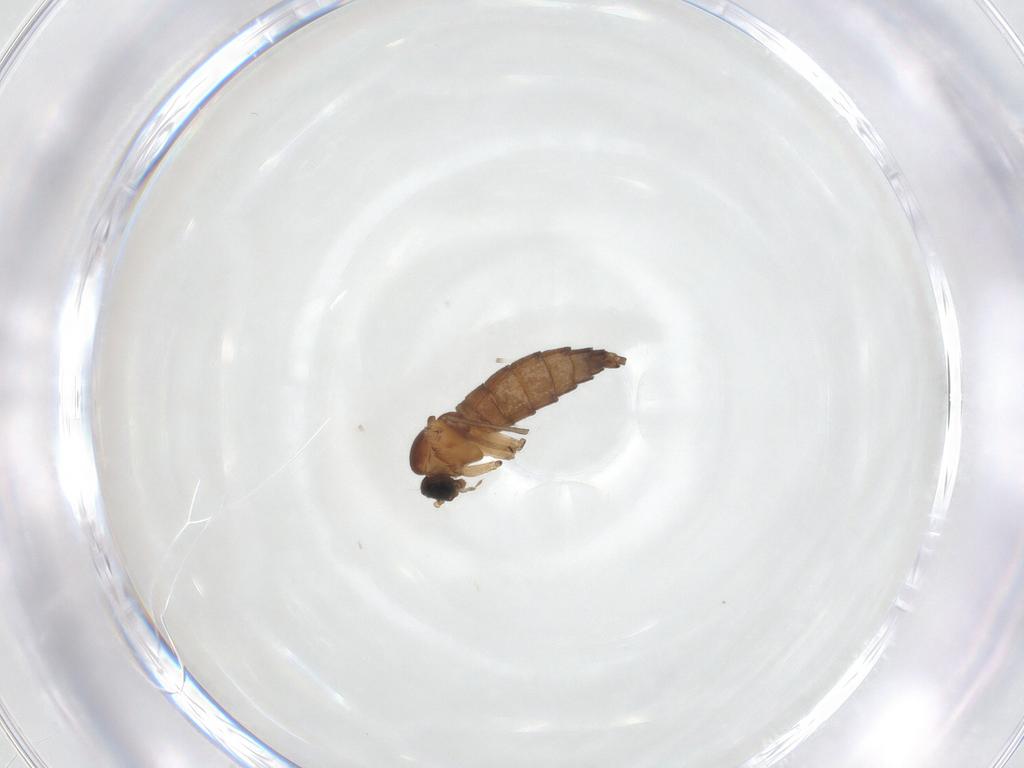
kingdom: Animalia
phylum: Arthropoda
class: Insecta
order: Diptera
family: Sciaridae
